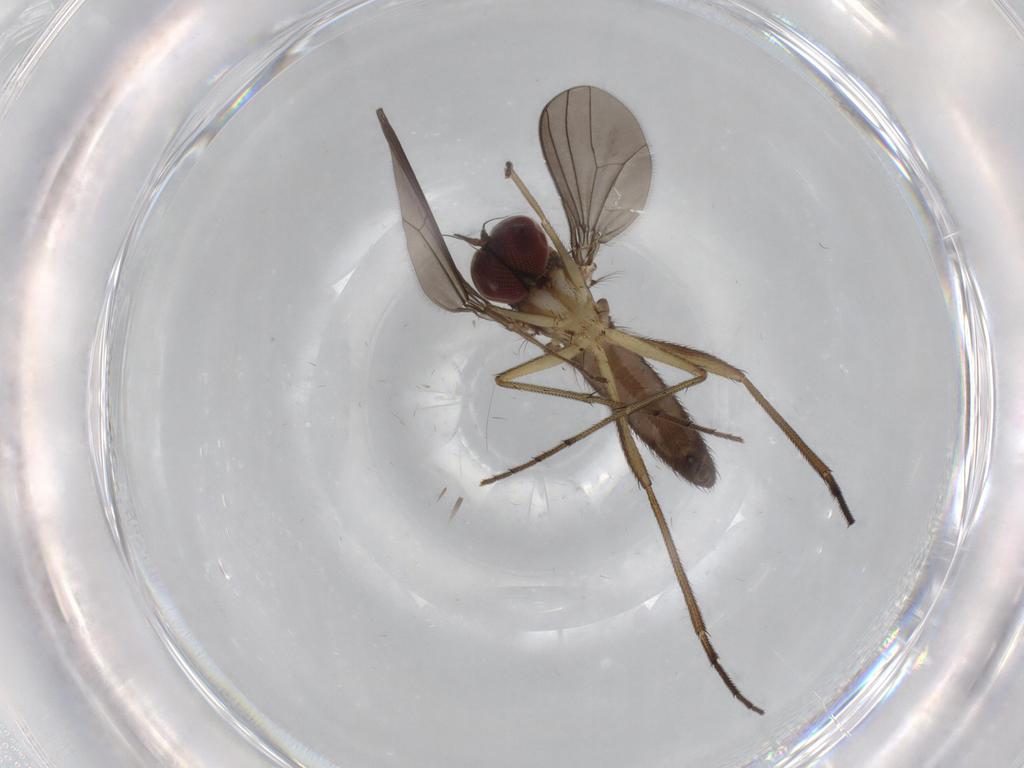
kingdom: Animalia
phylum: Arthropoda
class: Insecta
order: Diptera
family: Dolichopodidae
